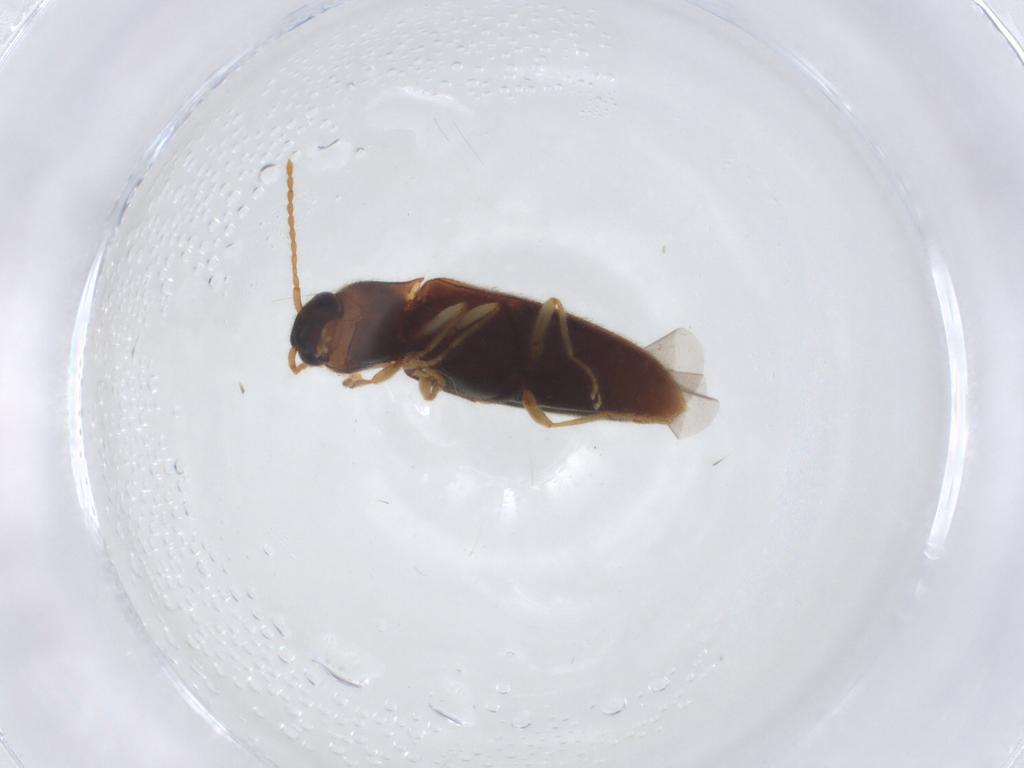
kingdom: Animalia
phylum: Arthropoda
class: Insecta
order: Coleoptera
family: Elateridae
